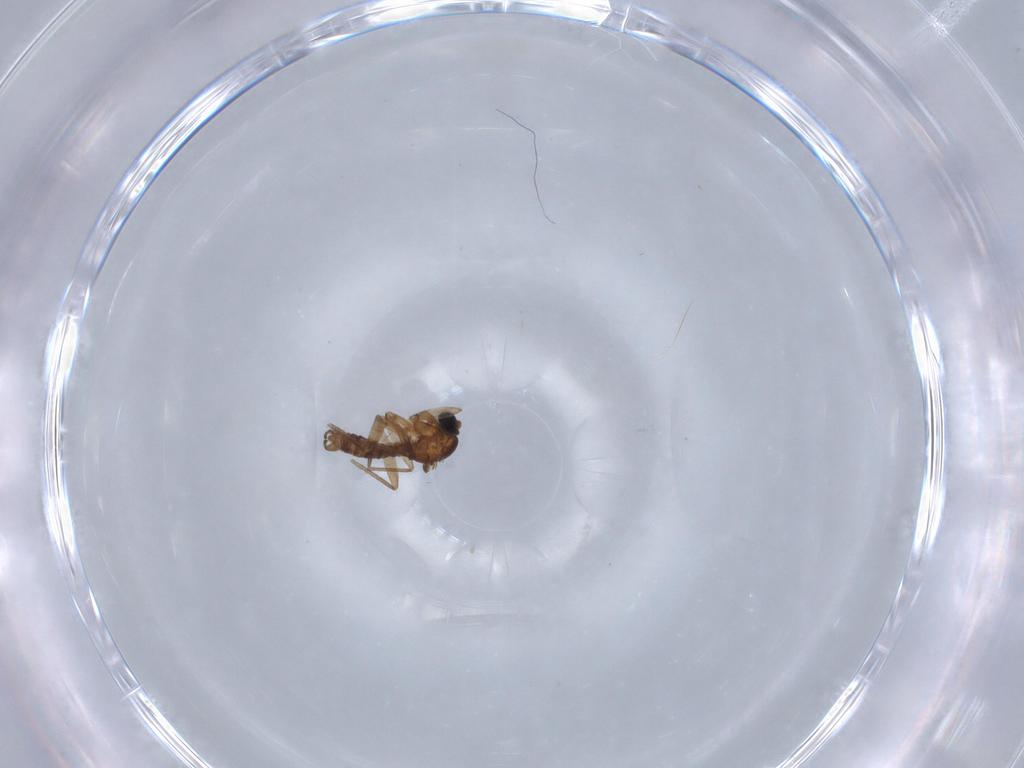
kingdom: Animalia
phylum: Arthropoda
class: Insecta
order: Diptera
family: Sciaridae
